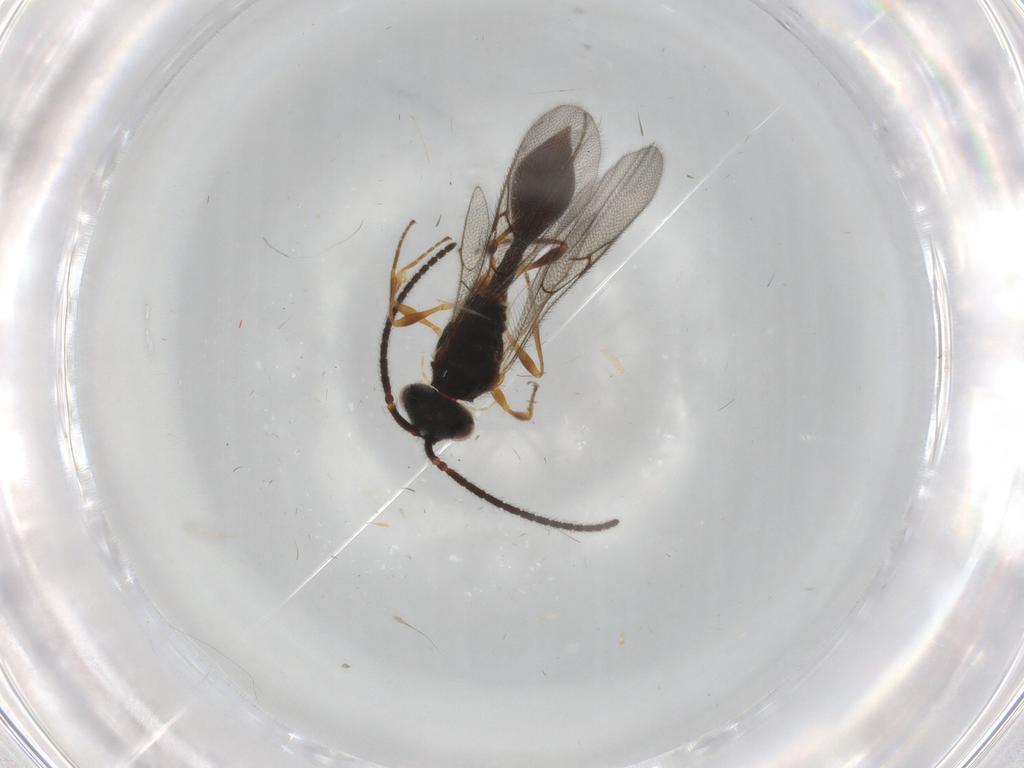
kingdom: Animalia
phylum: Arthropoda
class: Insecta
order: Hymenoptera
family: Diapriidae
